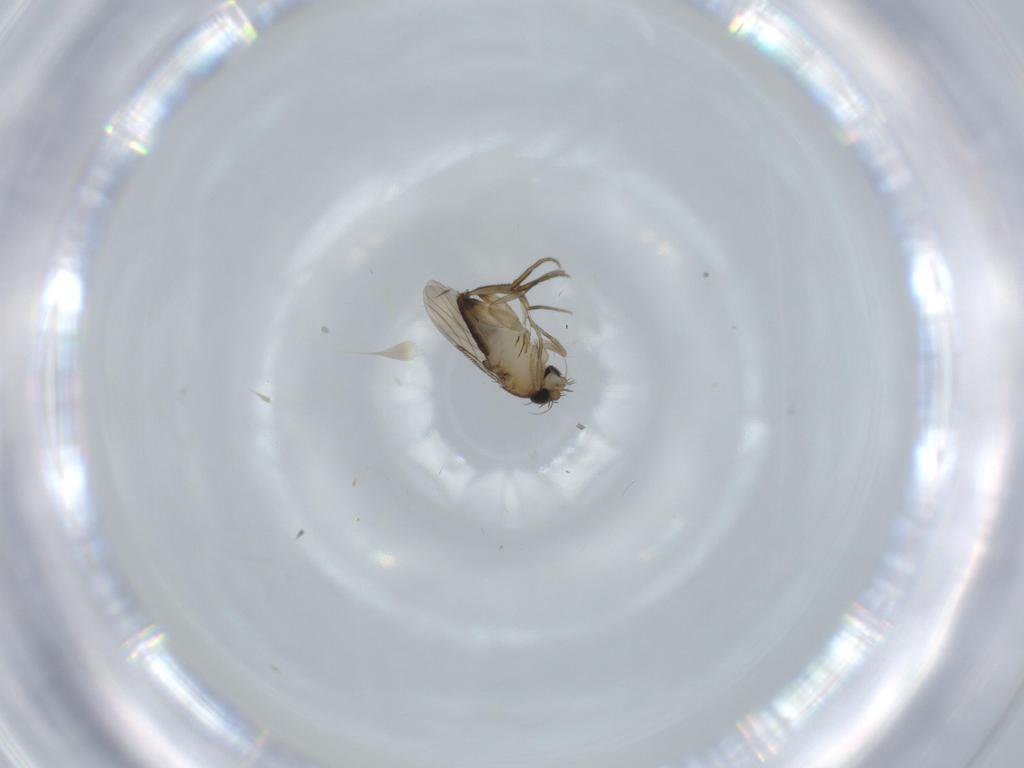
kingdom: Animalia
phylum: Arthropoda
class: Insecta
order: Diptera
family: Phoridae
